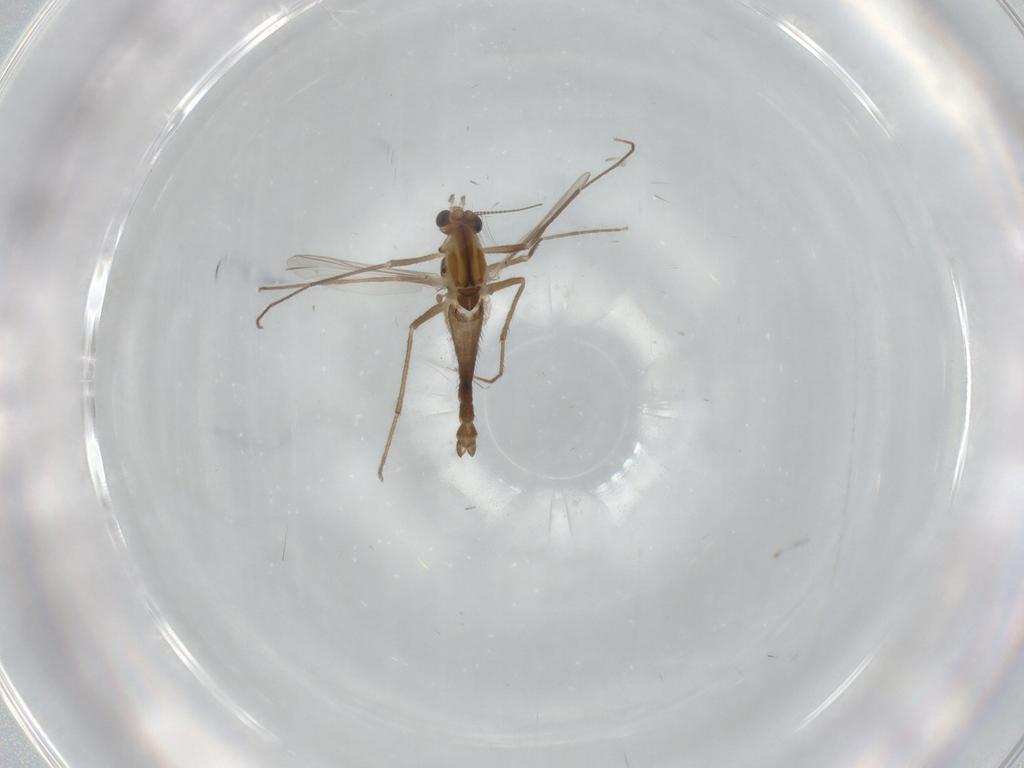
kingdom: Animalia
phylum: Arthropoda
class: Insecta
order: Diptera
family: Chironomidae
